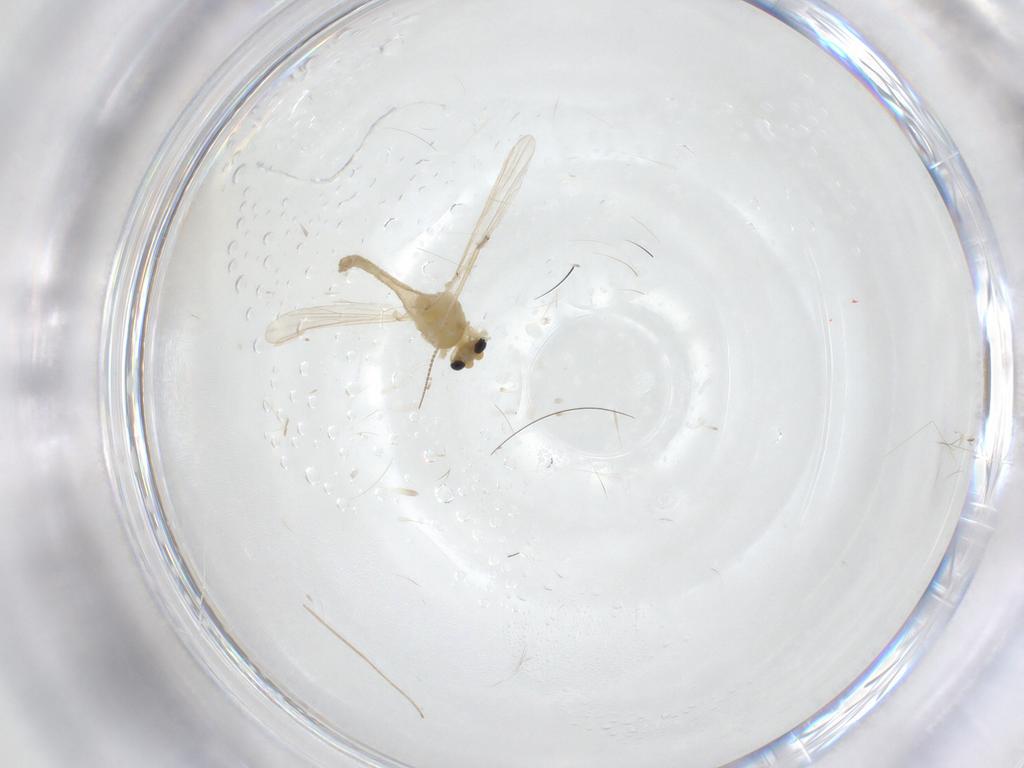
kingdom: Animalia
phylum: Arthropoda
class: Insecta
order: Diptera
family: Chironomidae
